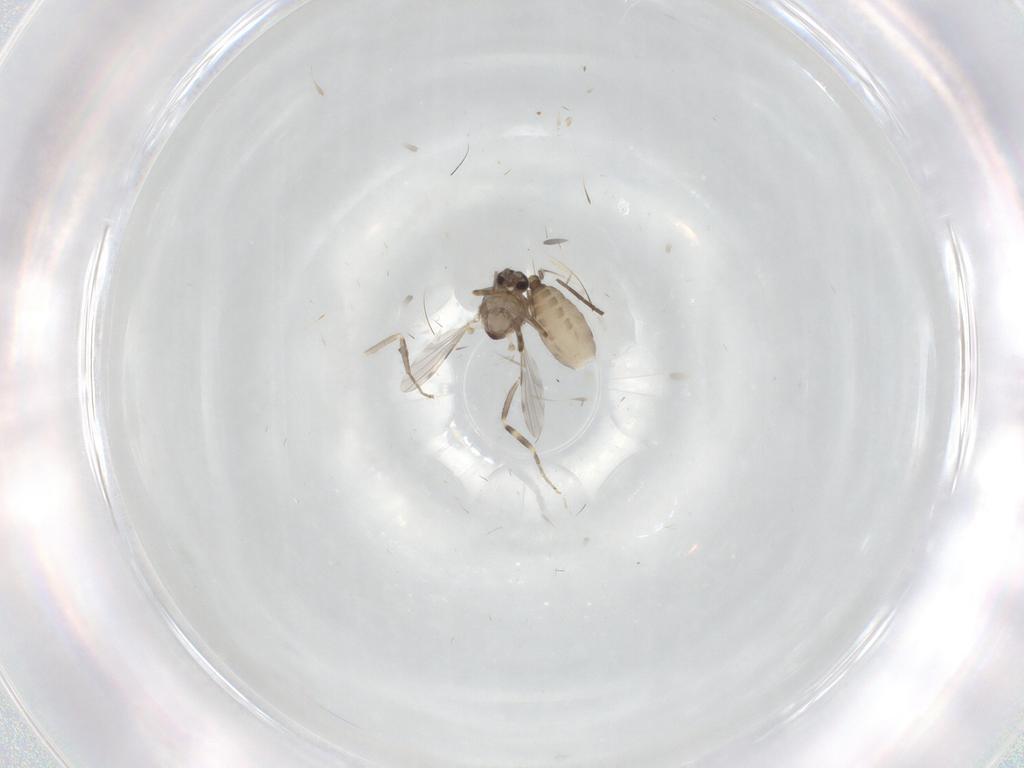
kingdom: Animalia
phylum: Arthropoda
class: Insecta
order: Diptera
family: Ceratopogonidae
